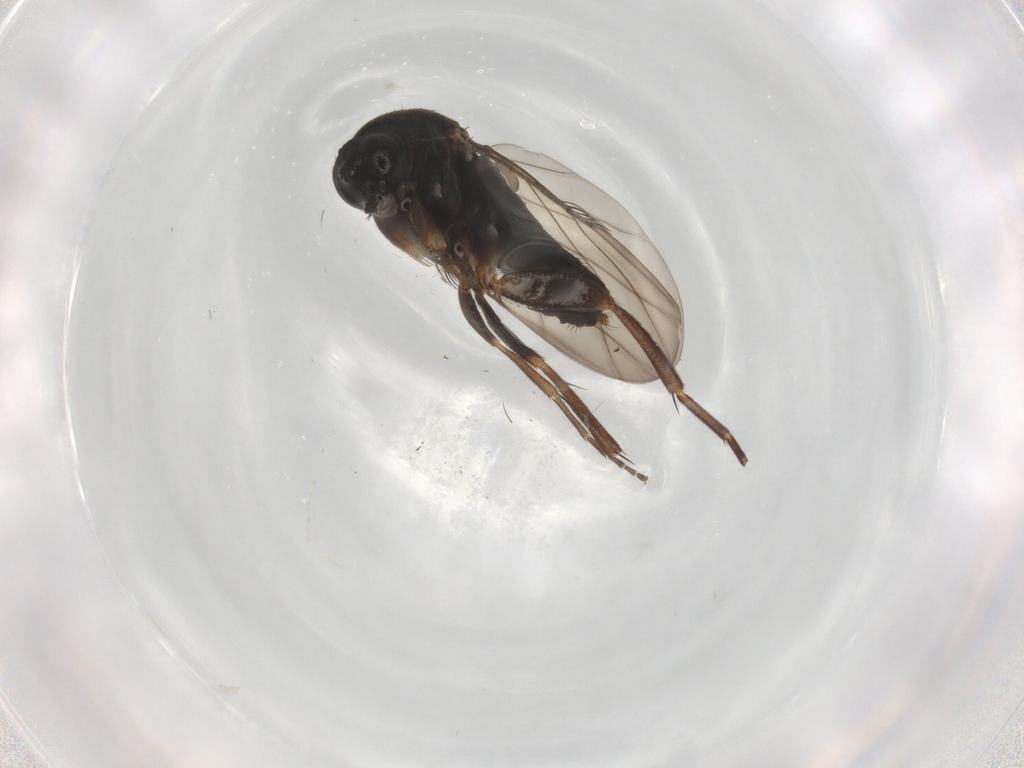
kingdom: Animalia
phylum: Arthropoda
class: Insecta
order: Diptera
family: Phoridae
